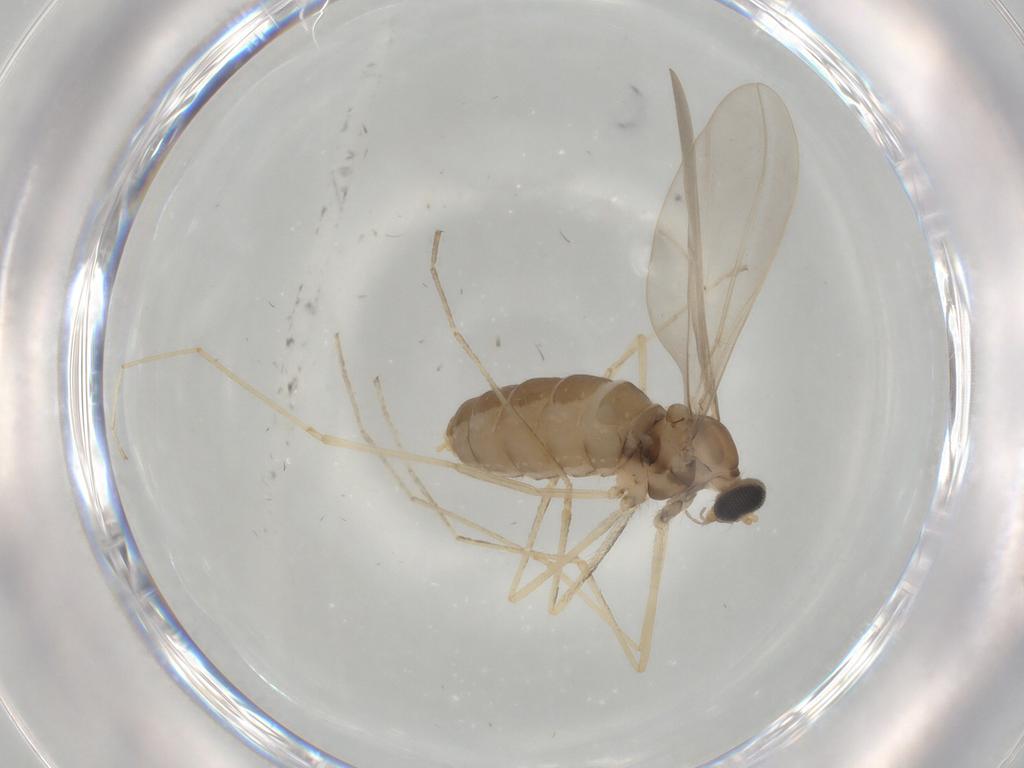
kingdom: Animalia
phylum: Arthropoda
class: Insecta
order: Diptera
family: Cecidomyiidae
